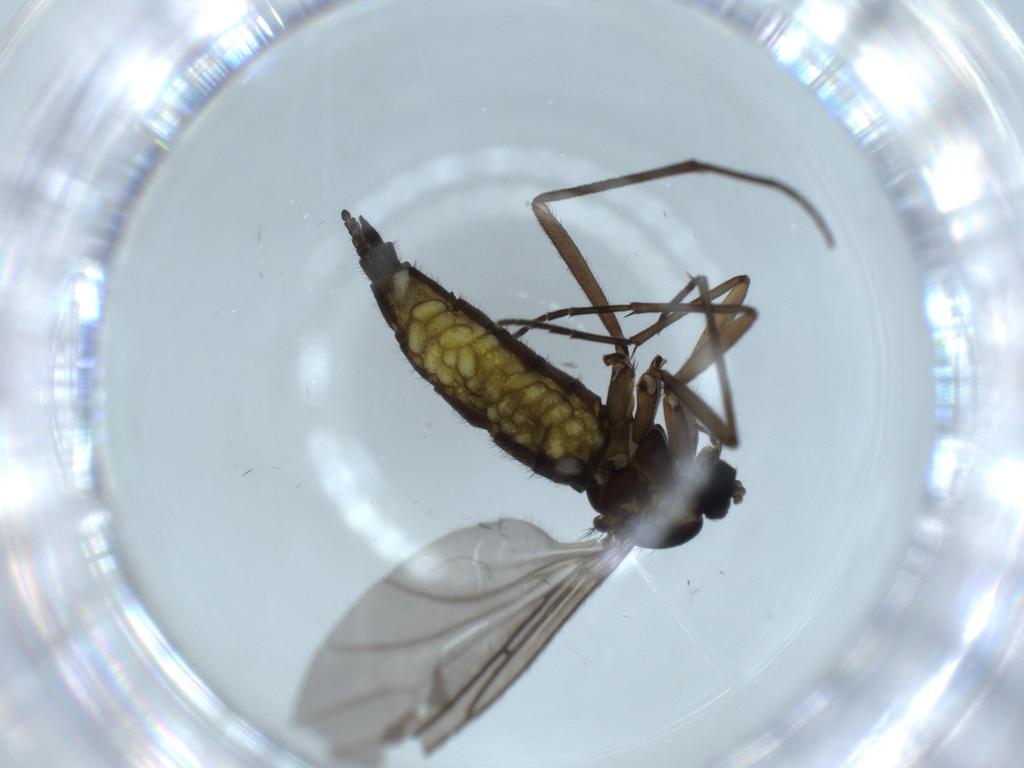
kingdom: Animalia
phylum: Arthropoda
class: Insecta
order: Diptera
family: Sciaridae
